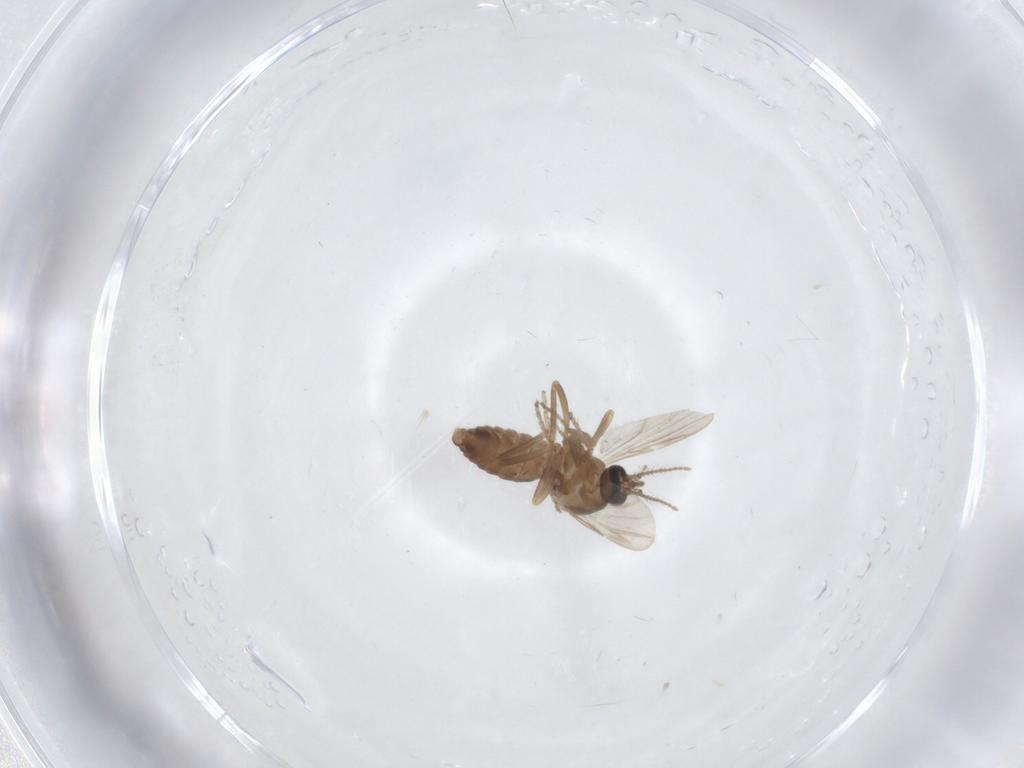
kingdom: Animalia
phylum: Arthropoda
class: Insecta
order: Diptera
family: Ceratopogonidae
